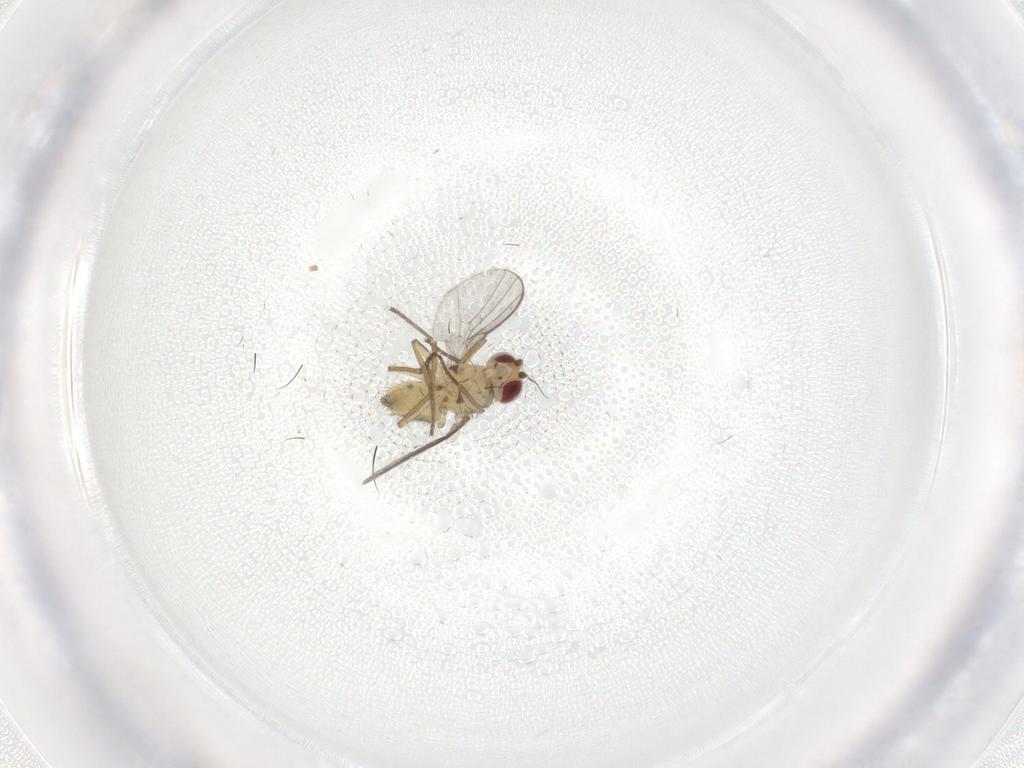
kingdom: Animalia
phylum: Arthropoda
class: Insecta
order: Diptera
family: Agromyzidae
